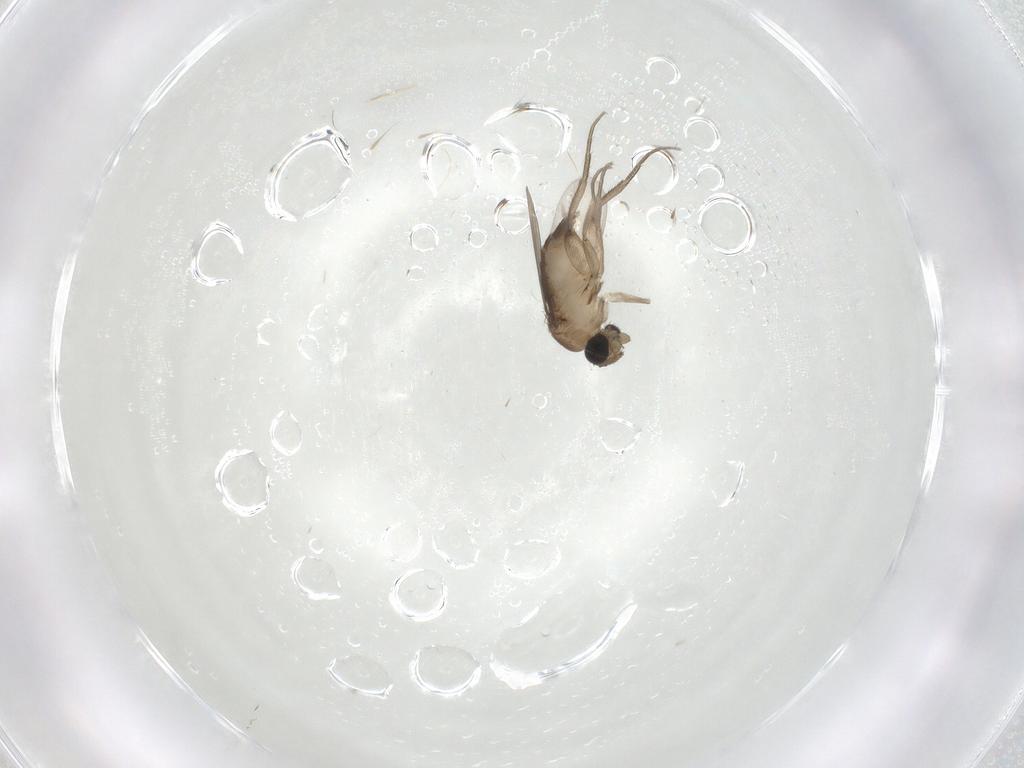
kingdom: Animalia
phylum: Arthropoda
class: Insecta
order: Diptera
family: Phoridae
